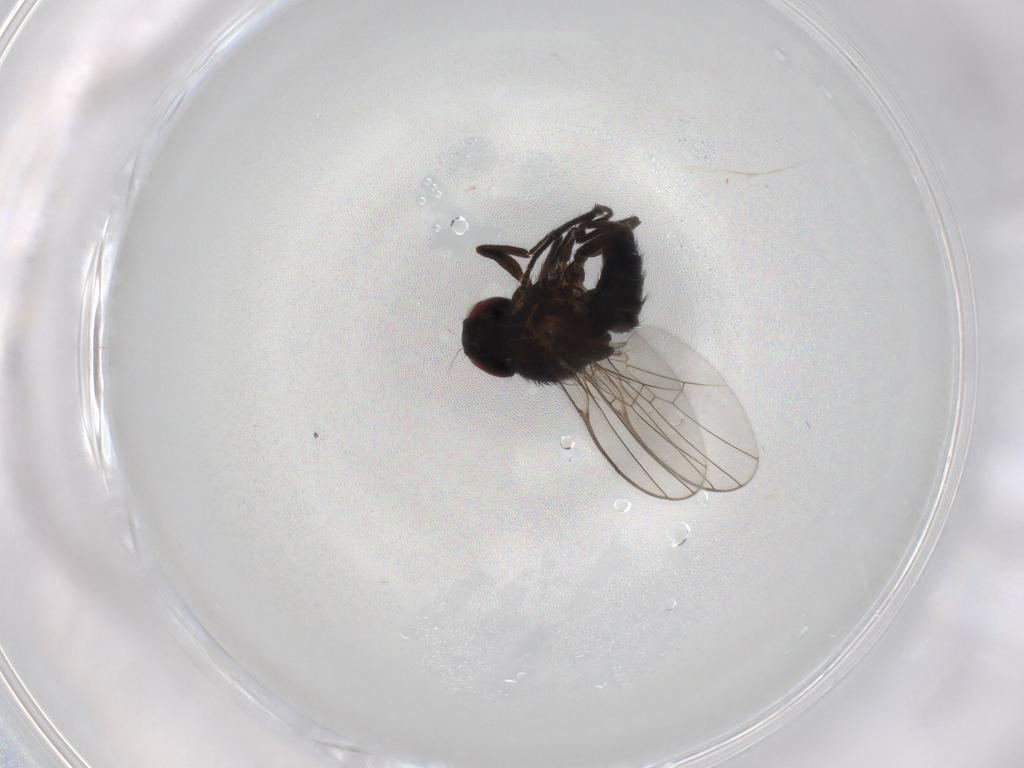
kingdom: Animalia
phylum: Arthropoda
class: Insecta
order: Diptera
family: Agromyzidae
